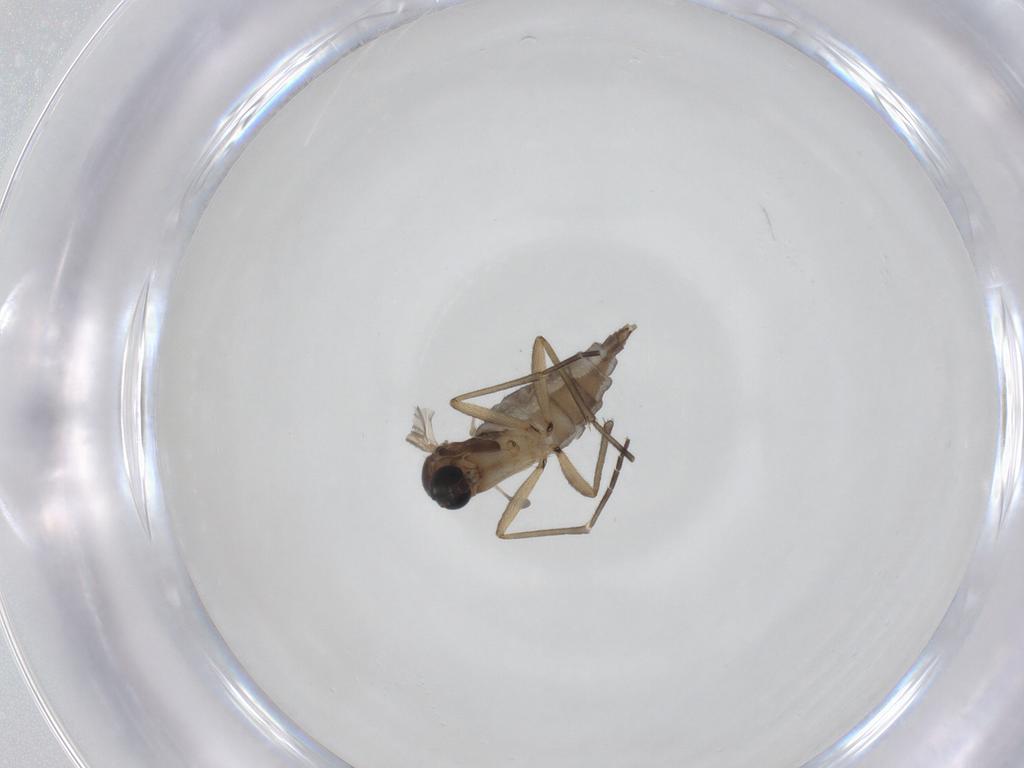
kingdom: Animalia
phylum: Arthropoda
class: Insecta
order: Diptera
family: Sciaridae
